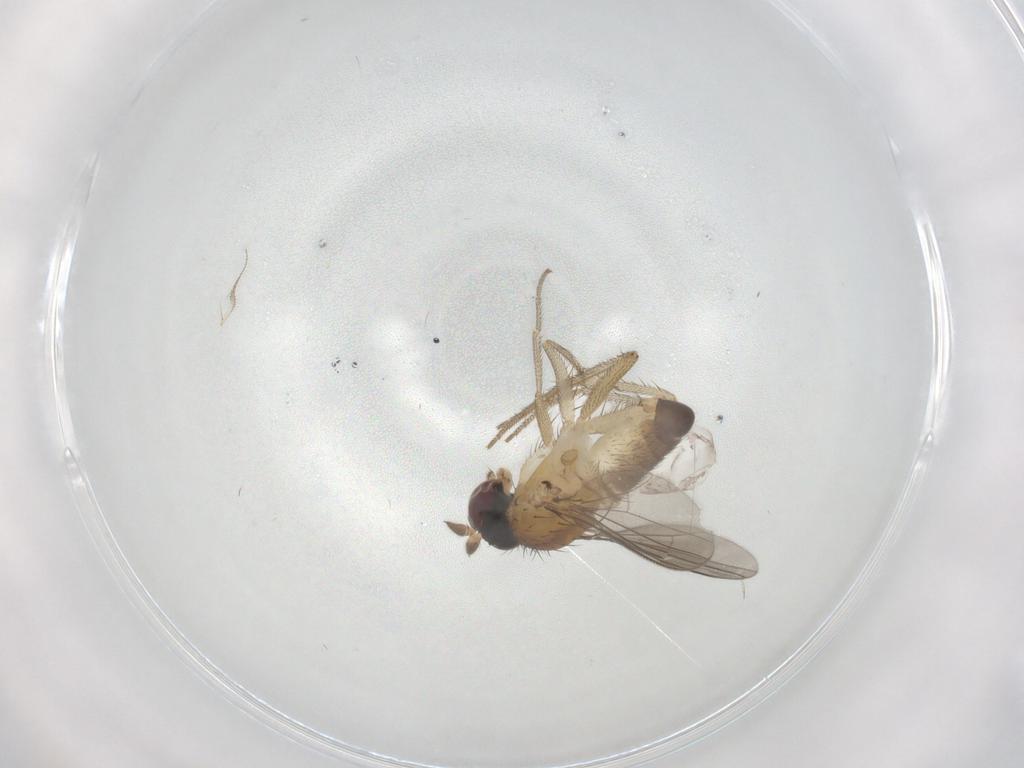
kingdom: Animalia
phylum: Arthropoda
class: Insecta
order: Diptera
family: Dolichopodidae
